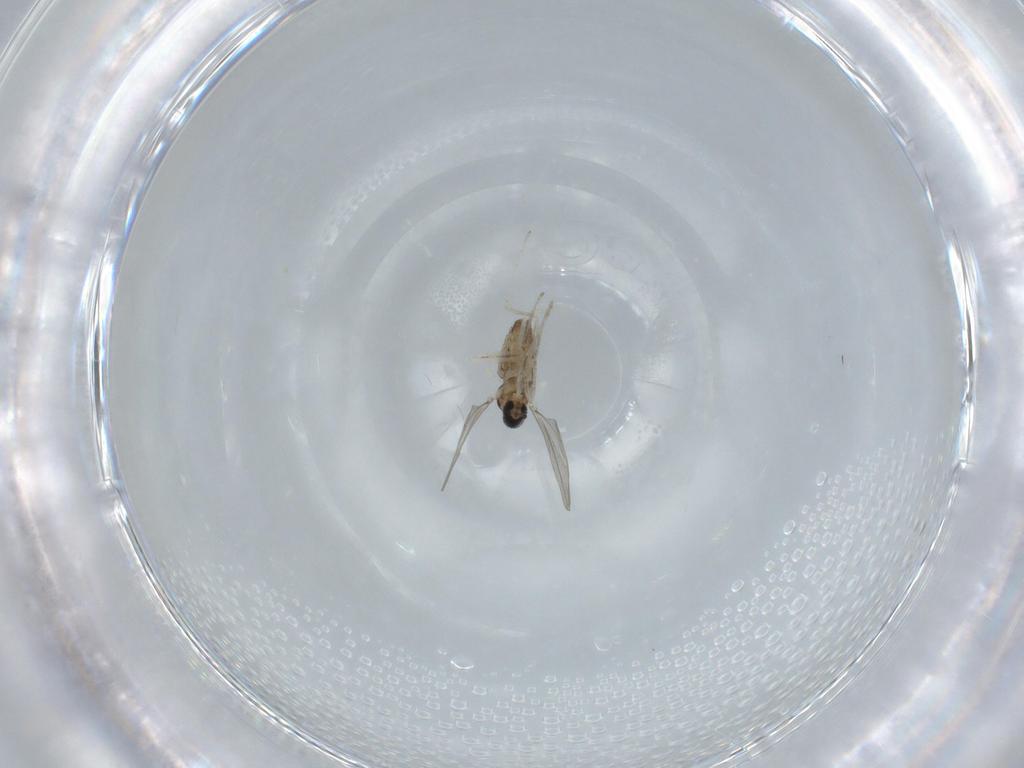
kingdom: Animalia
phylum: Arthropoda
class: Insecta
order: Diptera
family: Cecidomyiidae
